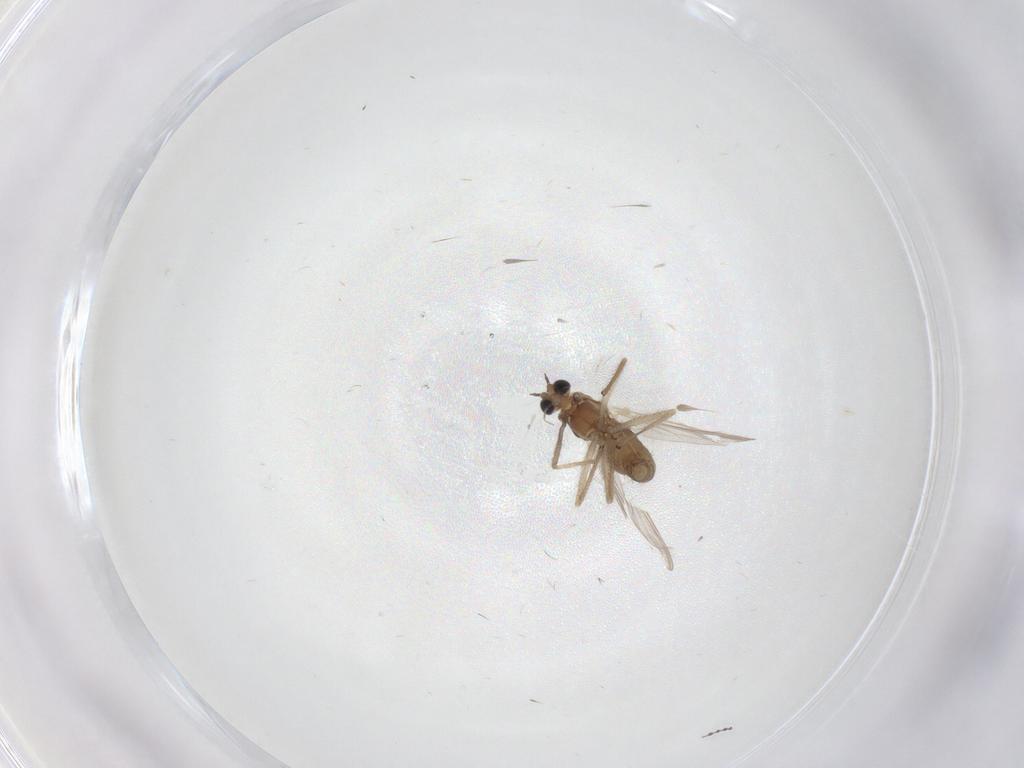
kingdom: Animalia
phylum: Arthropoda
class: Insecta
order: Diptera
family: Chironomidae
